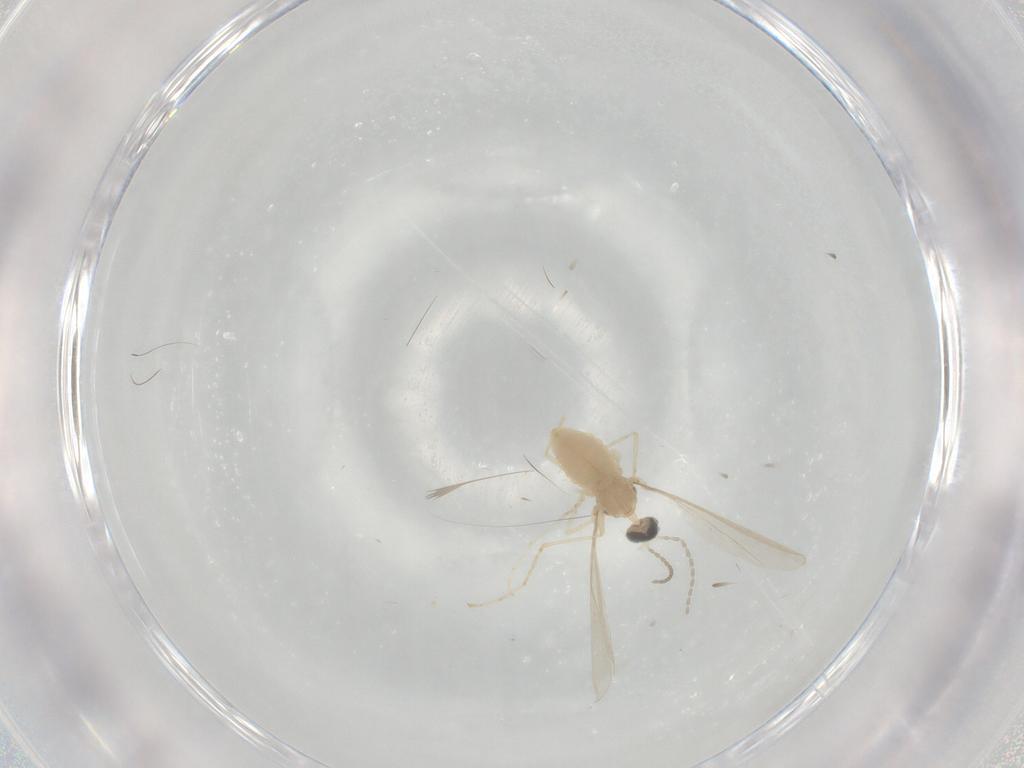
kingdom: Animalia
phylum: Arthropoda
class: Insecta
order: Diptera
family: Cecidomyiidae
